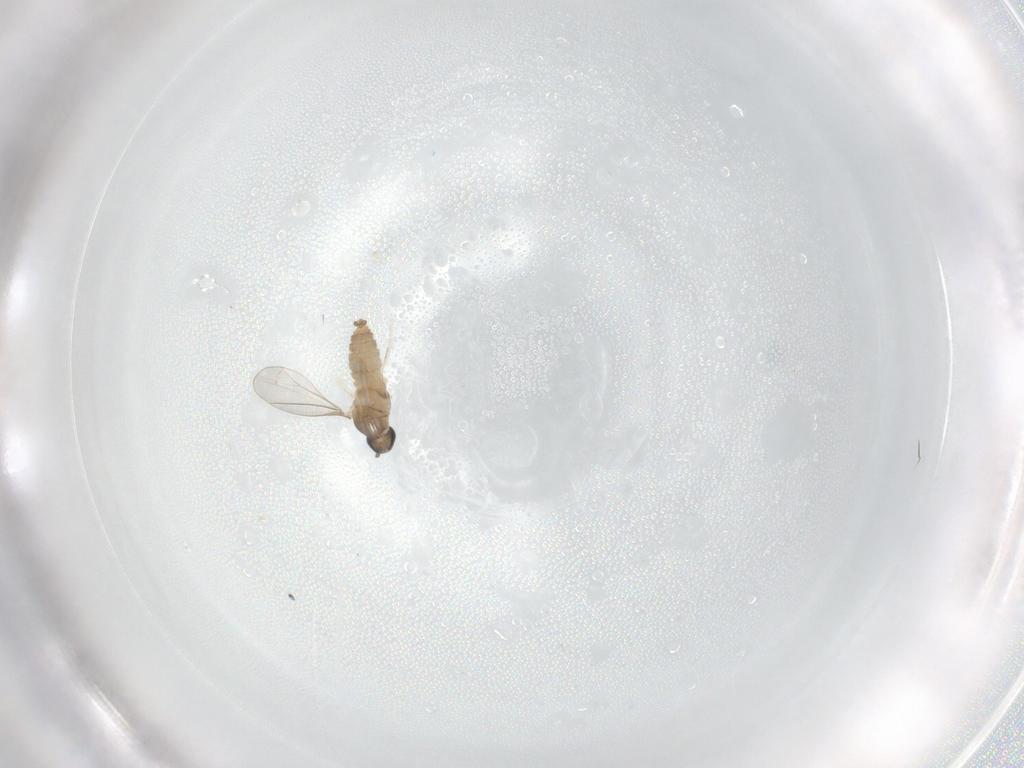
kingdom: Animalia
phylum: Arthropoda
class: Insecta
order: Diptera
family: Cecidomyiidae
